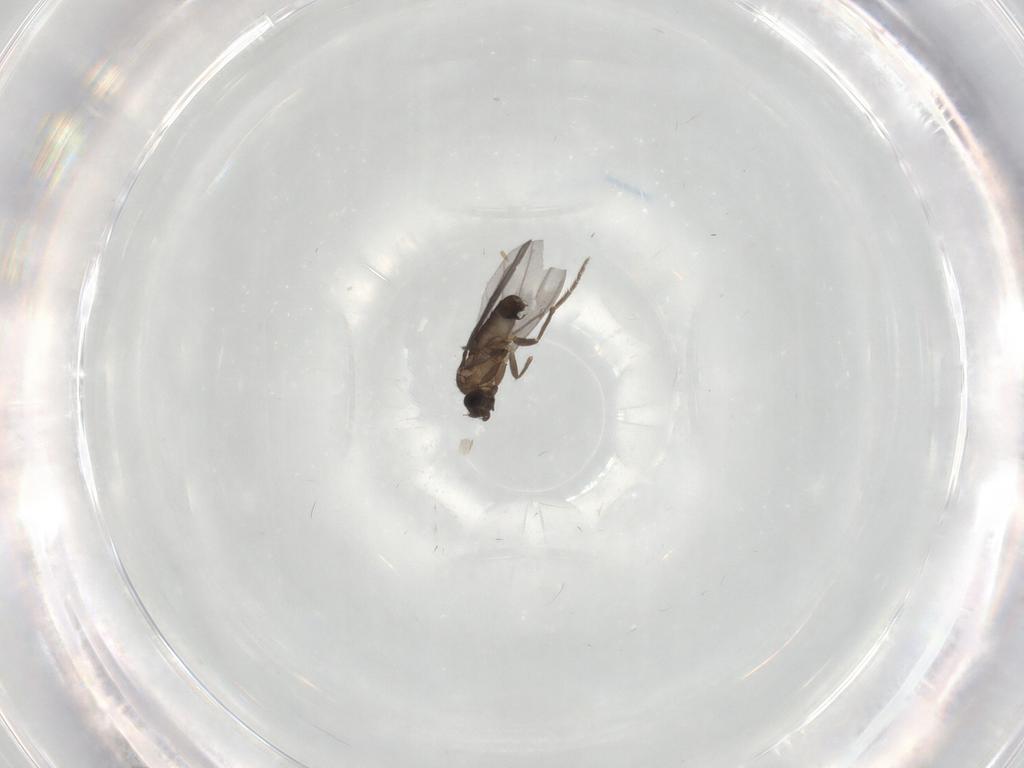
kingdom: Animalia
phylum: Arthropoda
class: Insecta
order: Diptera
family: Phoridae
